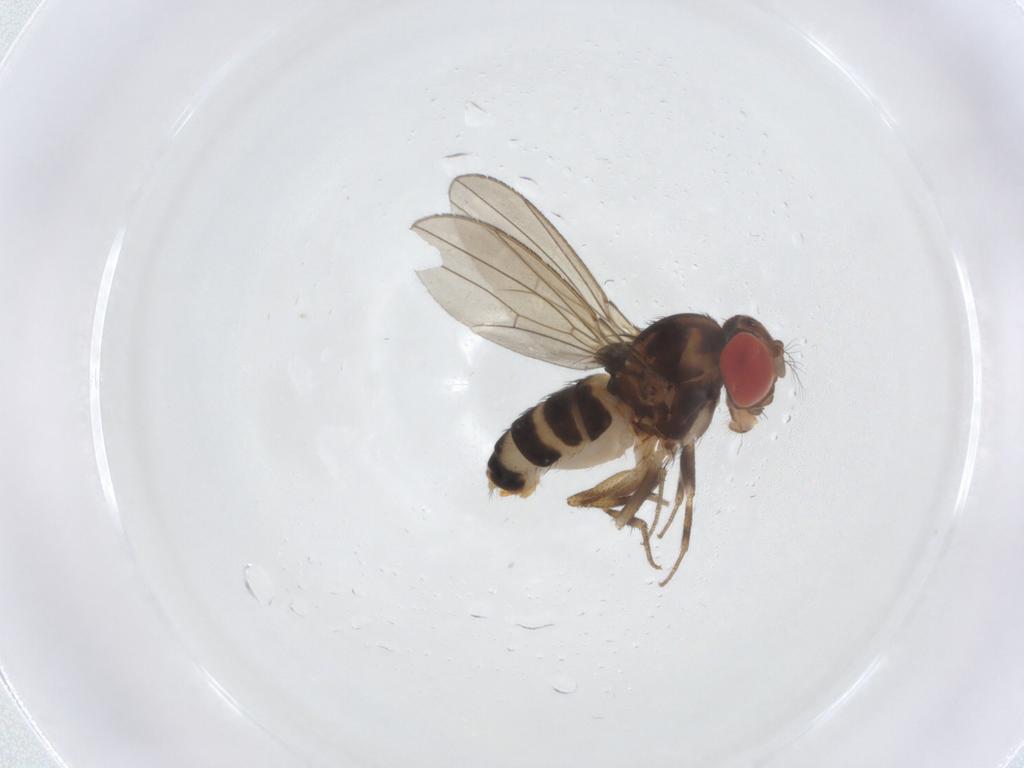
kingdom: Animalia
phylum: Arthropoda
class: Insecta
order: Diptera
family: Drosophilidae
